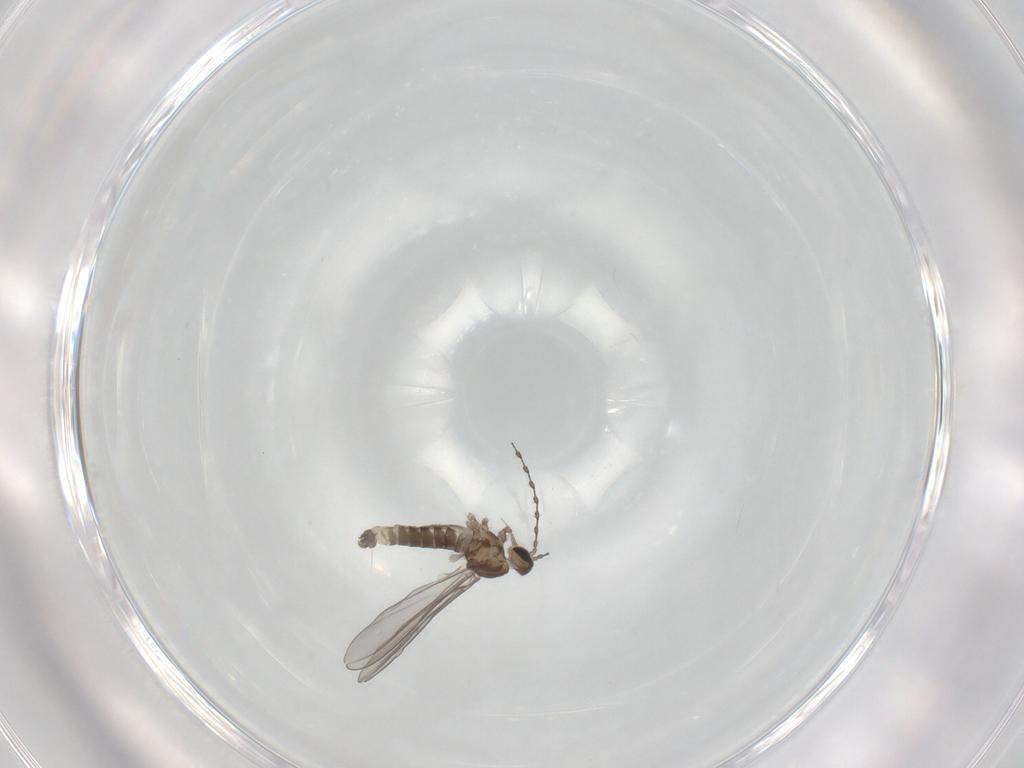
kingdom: Animalia
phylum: Arthropoda
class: Insecta
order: Diptera
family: Cecidomyiidae
